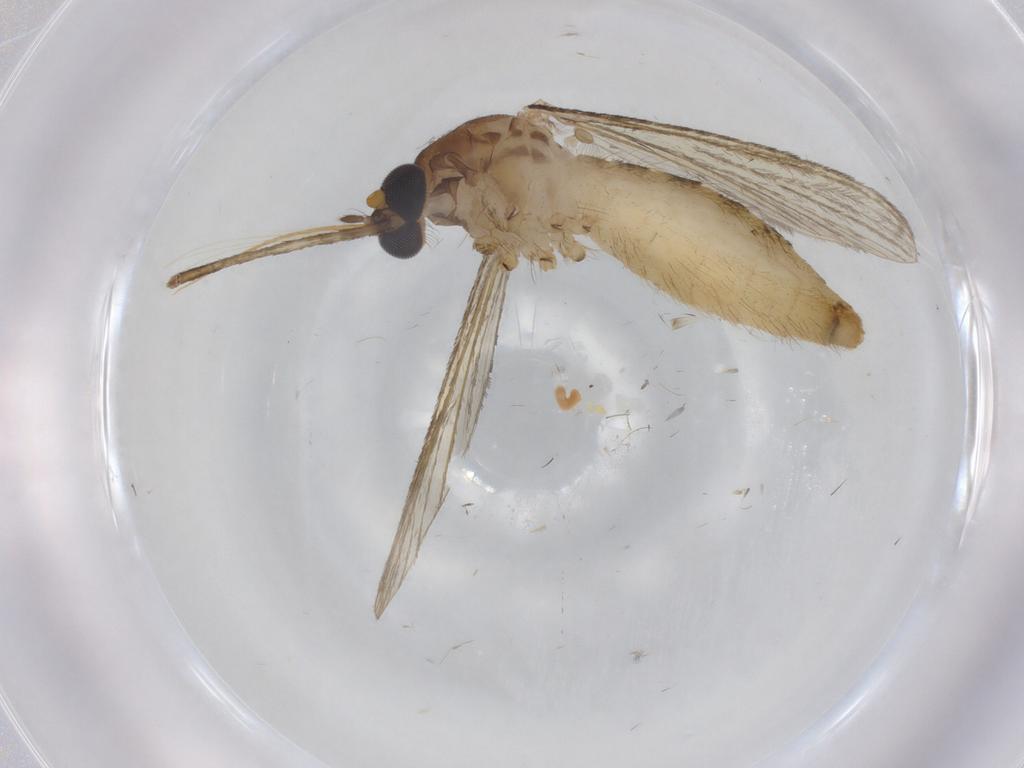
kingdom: Animalia
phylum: Arthropoda
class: Insecta
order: Diptera
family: Culicidae
